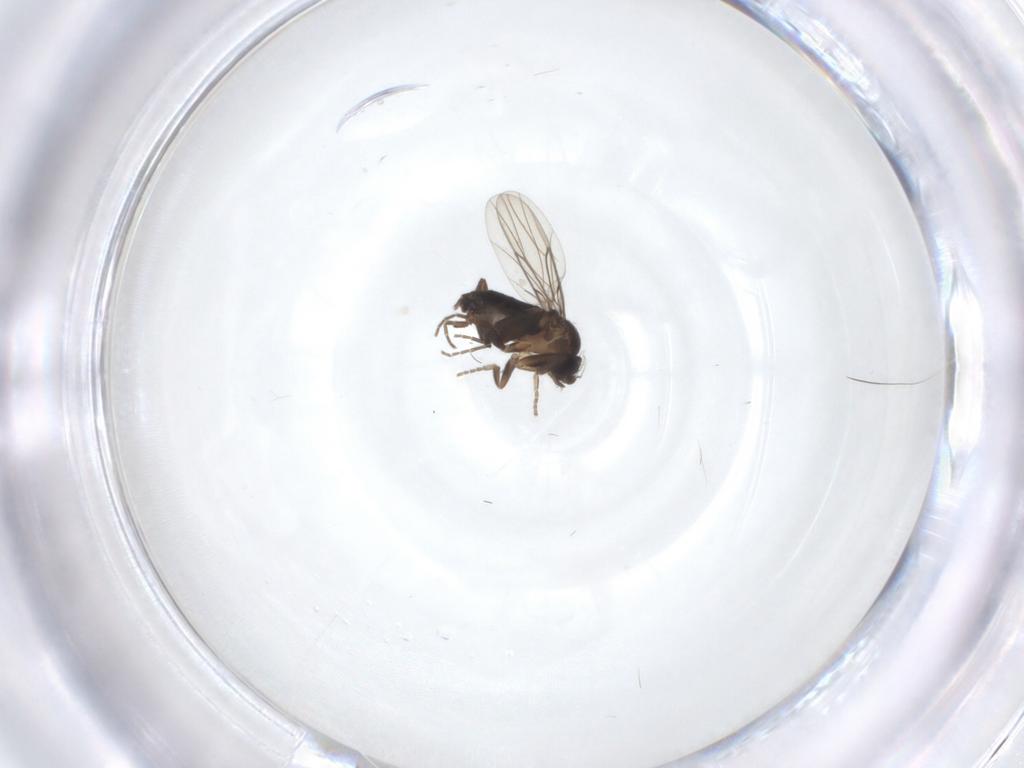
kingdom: Animalia
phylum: Arthropoda
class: Insecta
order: Diptera
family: Phoridae
